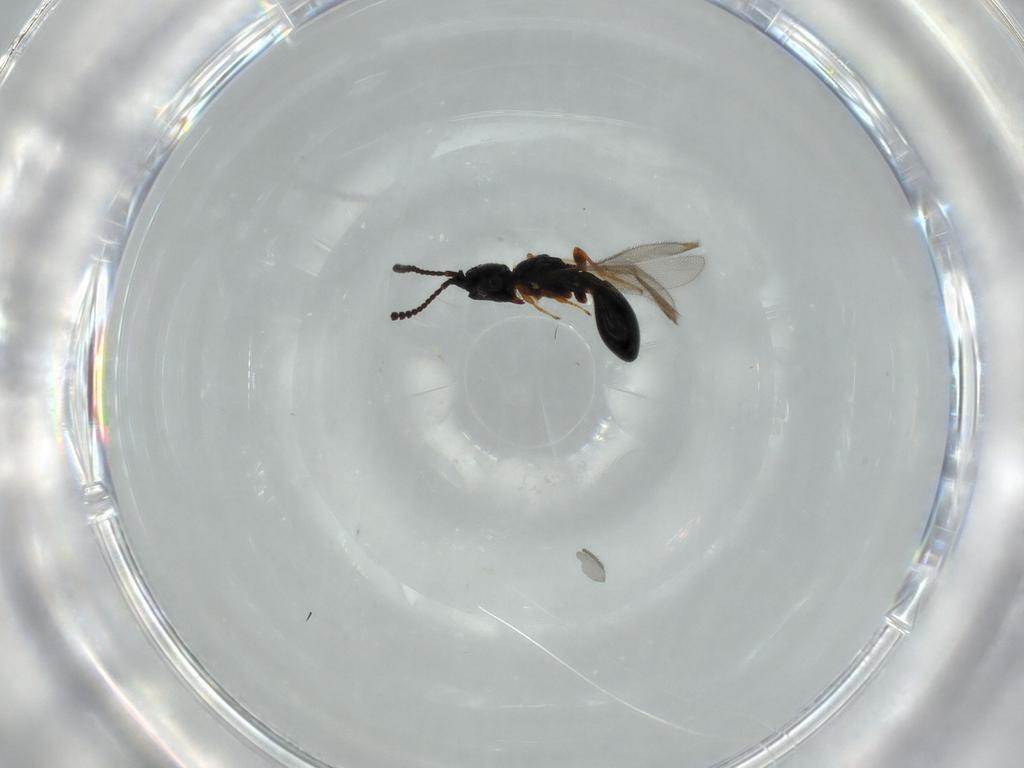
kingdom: Animalia
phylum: Arthropoda
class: Insecta
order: Hymenoptera
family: Diapriidae
